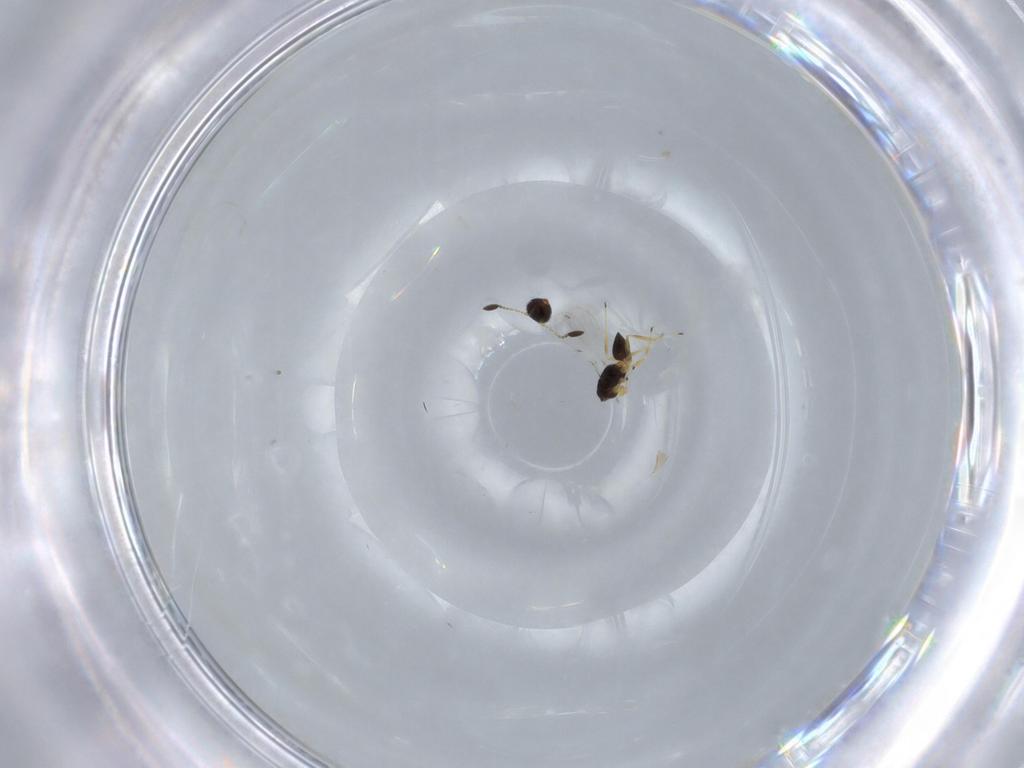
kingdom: Animalia
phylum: Arthropoda
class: Insecta
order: Hymenoptera
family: Mymaridae
